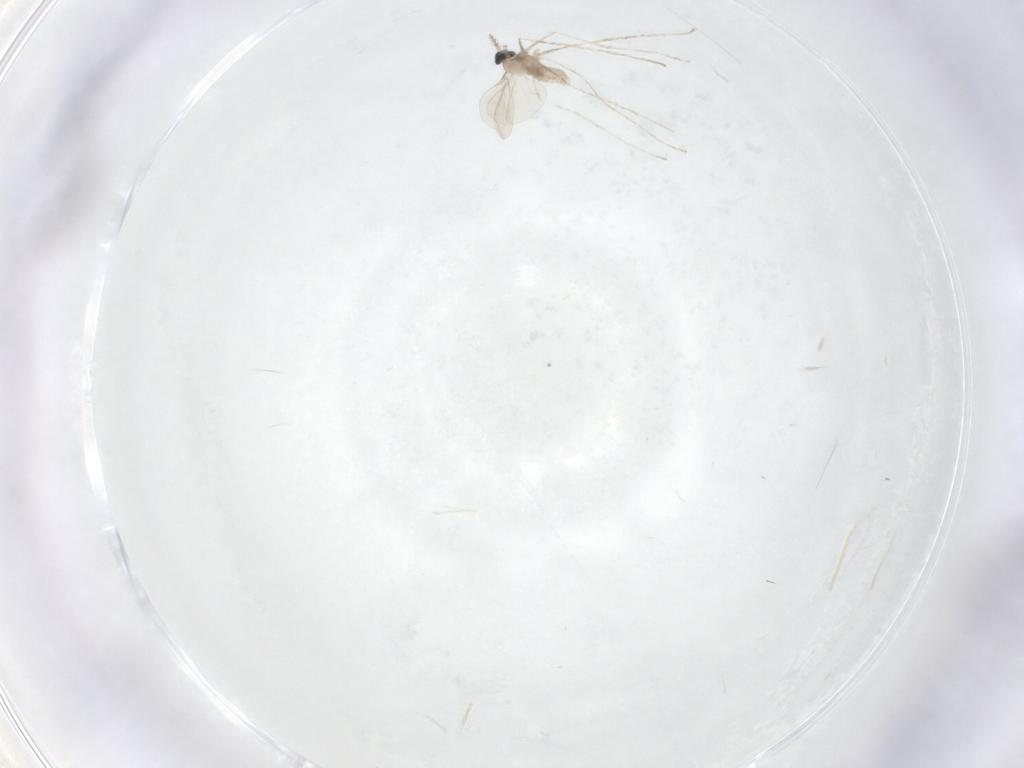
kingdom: Animalia
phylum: Arthropoda
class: Insecta
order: Diptera
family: Cecidomyiidae
